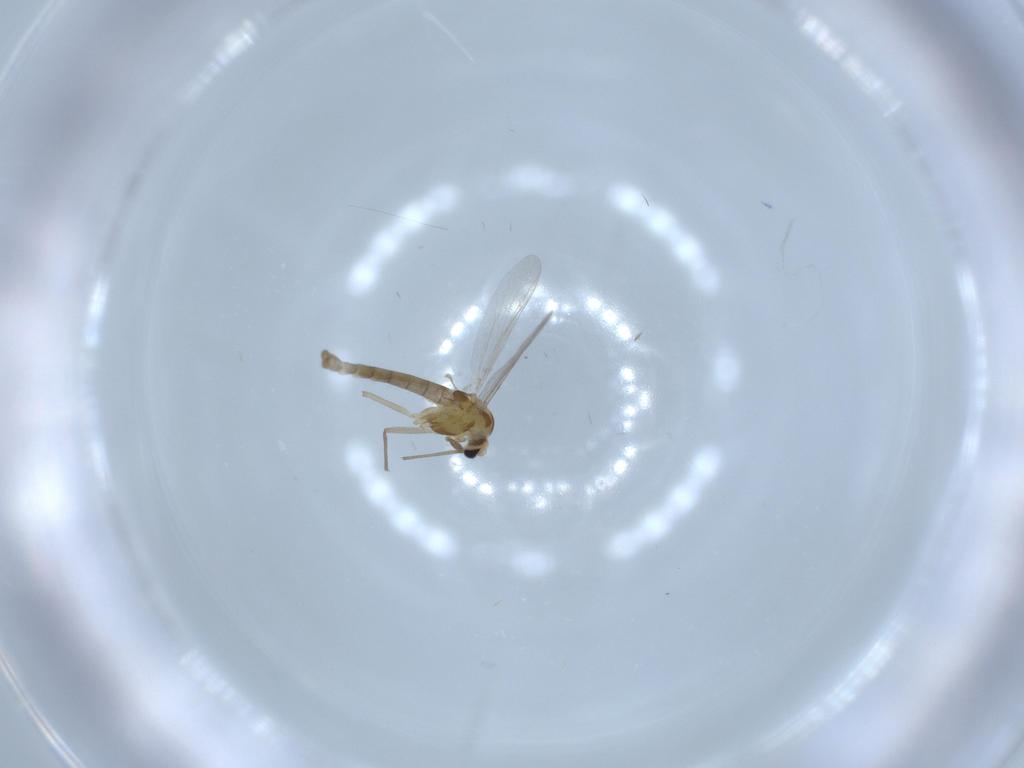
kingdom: Animalia
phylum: Arthropoda
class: Insecta
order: Diptera
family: Chironomidae
